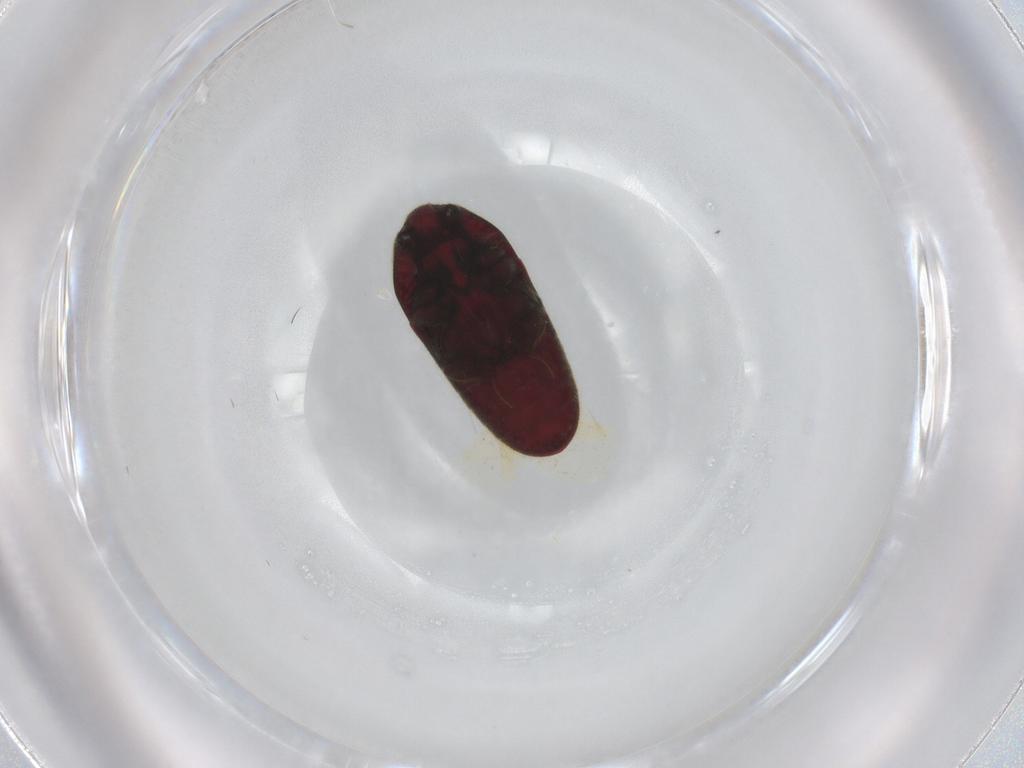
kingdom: Animalia
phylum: Arthropoda
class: Insecta
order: Coleoptera
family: Throscidae
